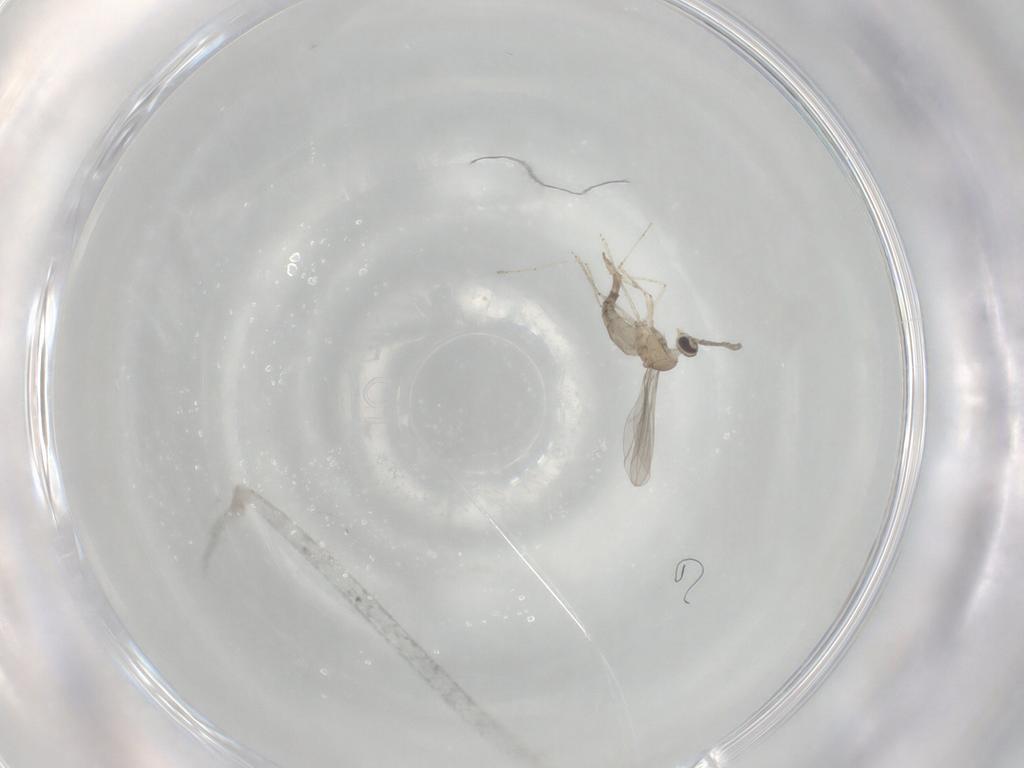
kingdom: Animalia
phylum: Arthropoda
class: Insecta
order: Diptera
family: Cecidomyiidae
